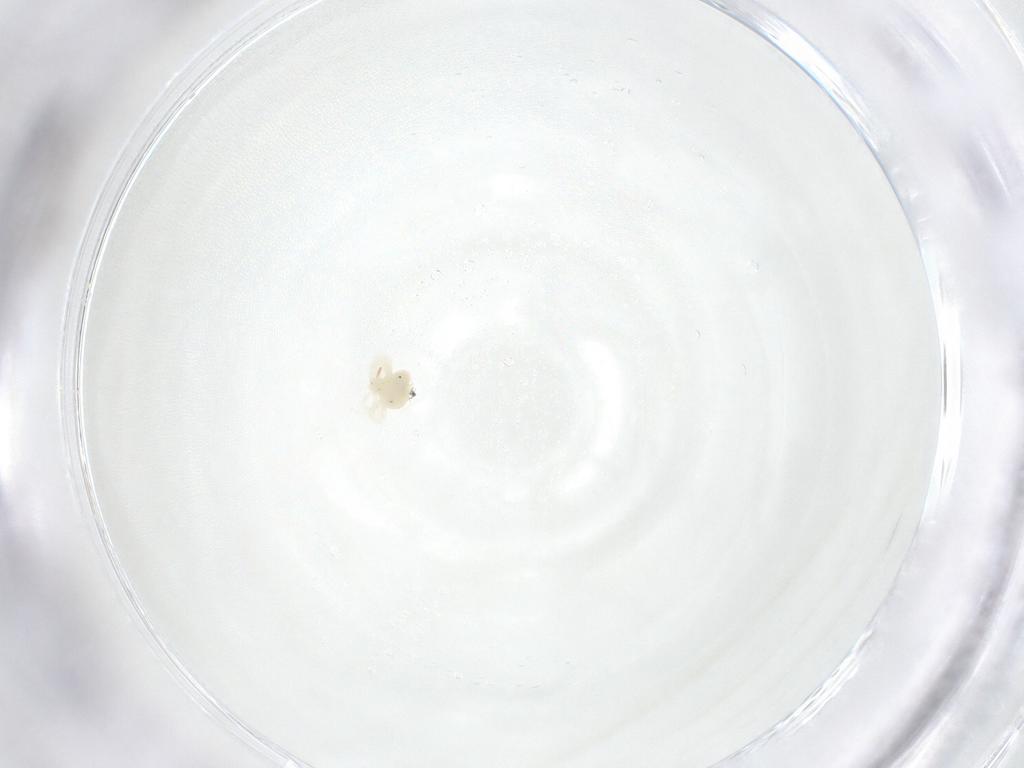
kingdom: Animalia
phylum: Arthropoda
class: Arachnida
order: Trombidiformes
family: Anystidae
